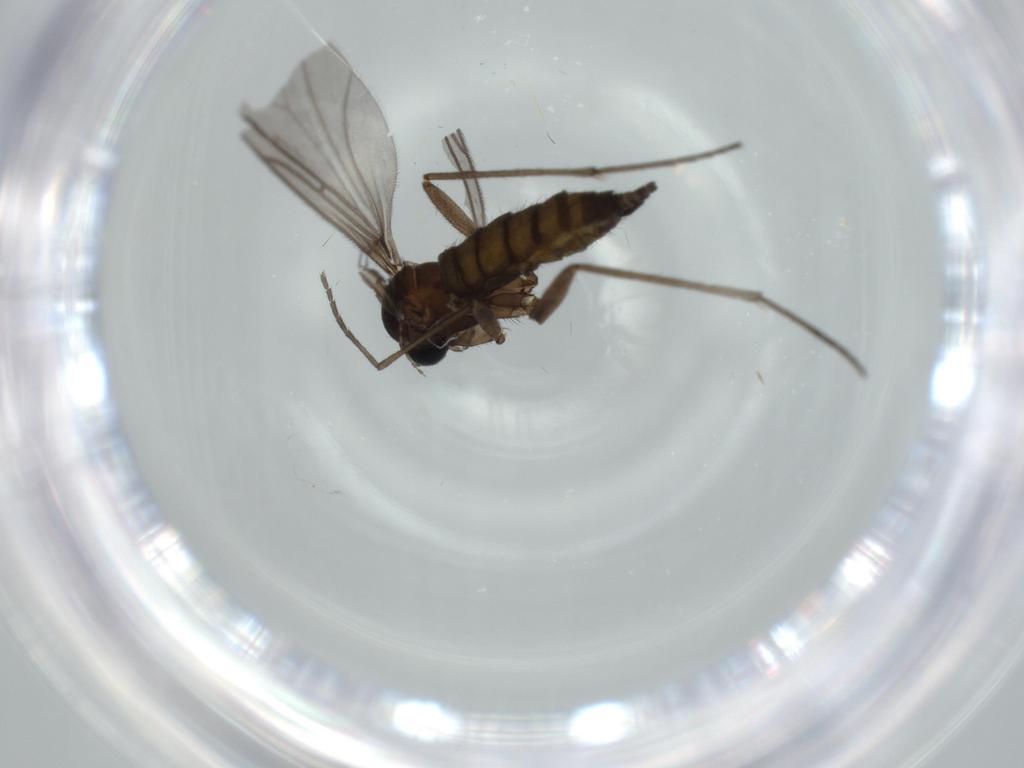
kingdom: Animalia
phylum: Arthropoda
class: Insecta
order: Diptera
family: Sciaridae
